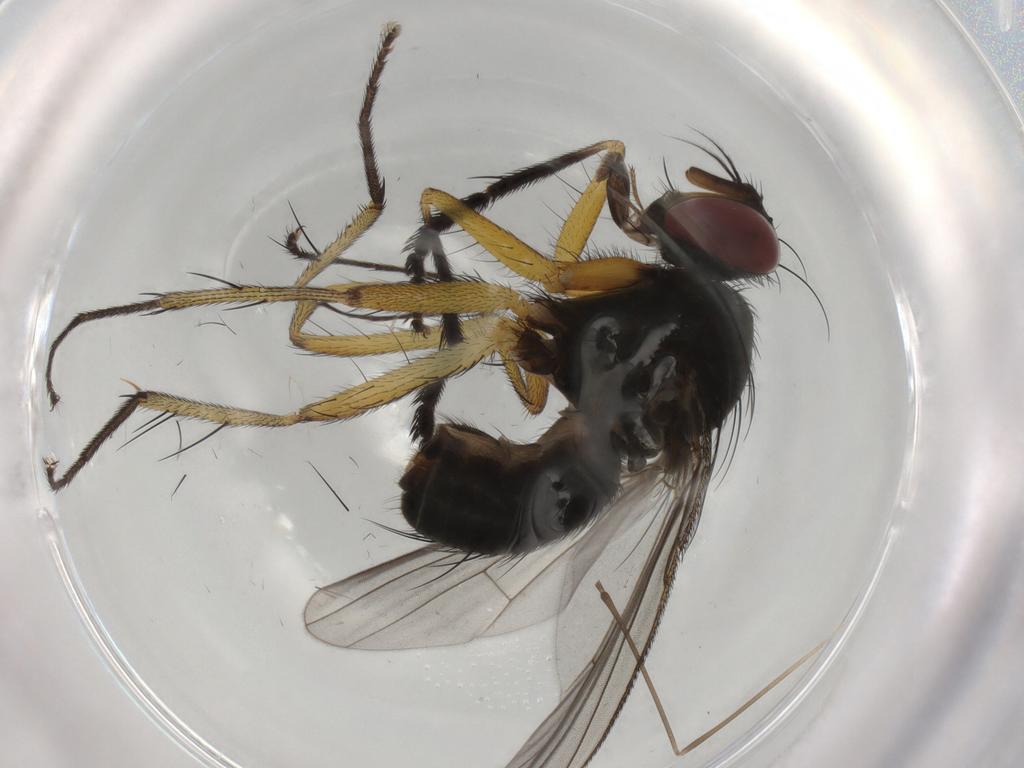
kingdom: Animalia
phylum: Arthropoda
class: Insecta
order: Diptera
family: Muscidae
